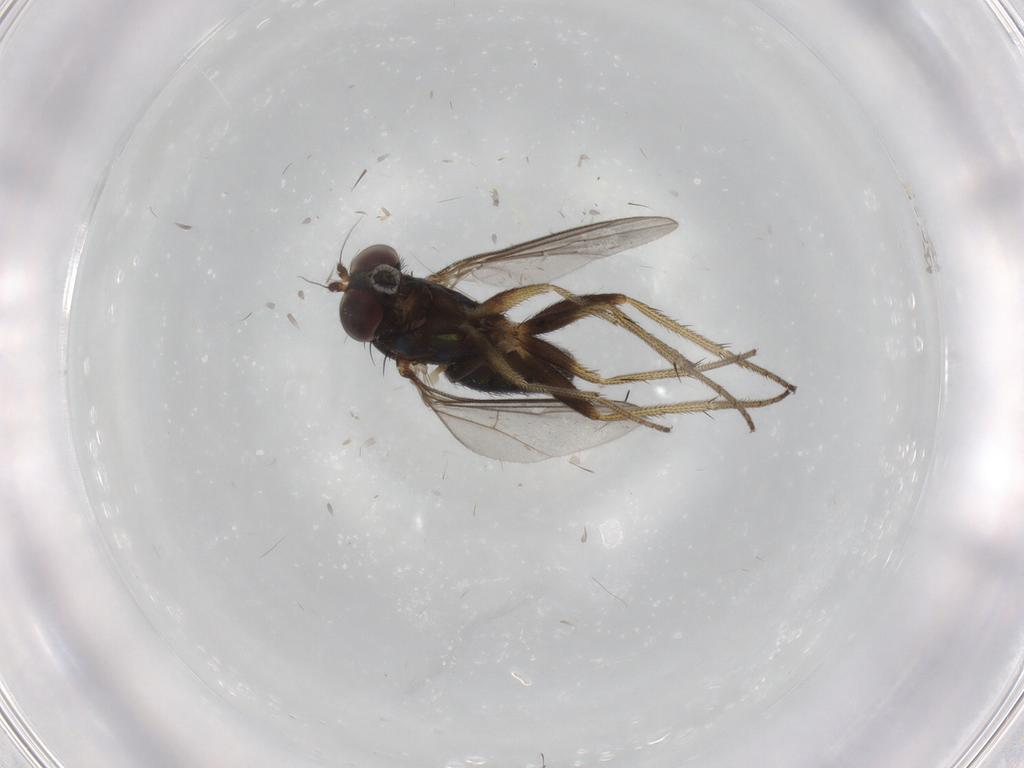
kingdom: Animalia
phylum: Arthropoda
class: Insecta
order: Diptera
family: Dolichopodidae
